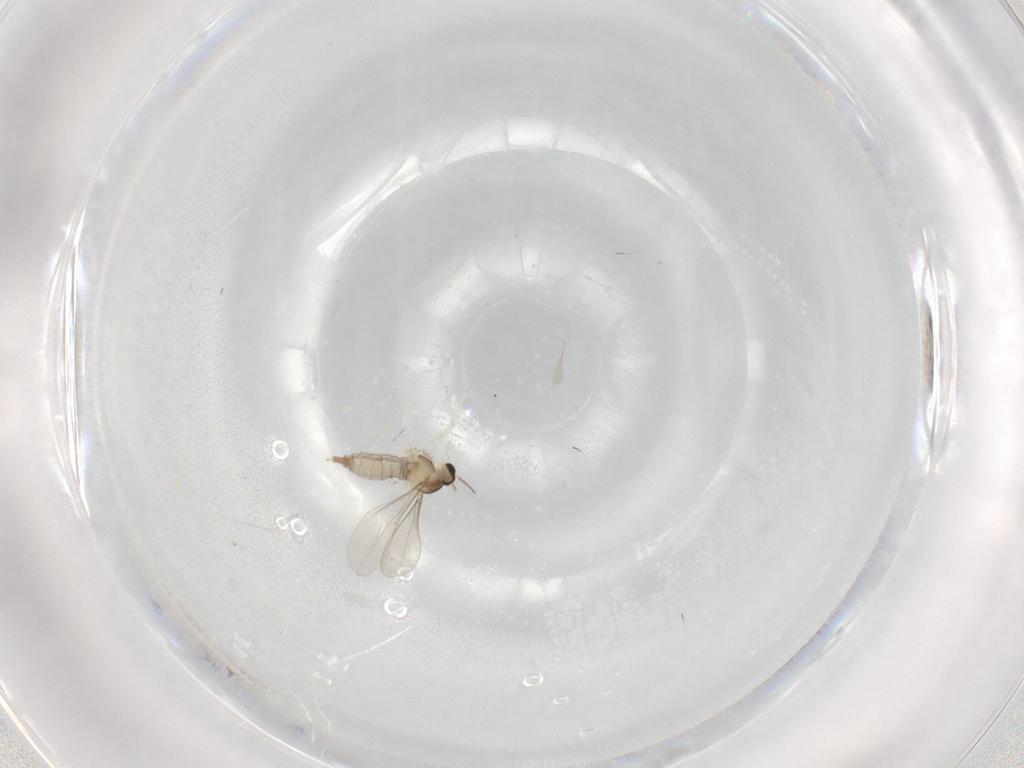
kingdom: Animalia
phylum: Arthropoda
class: Insecta
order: Diptera
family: Cecidomyiidae
